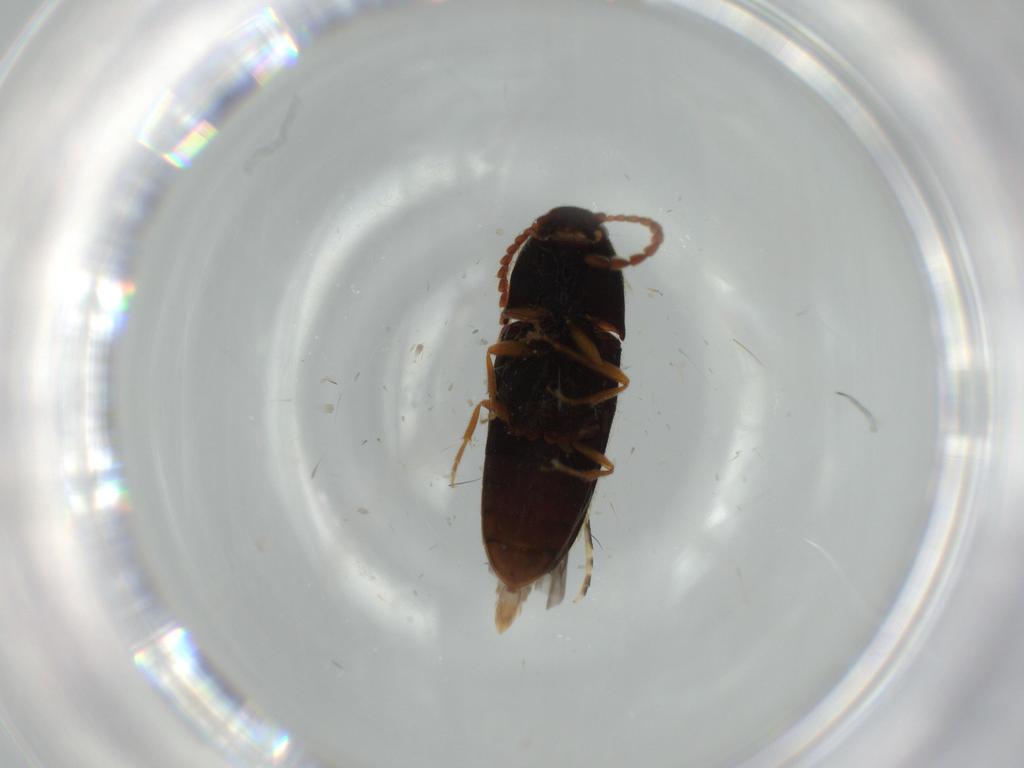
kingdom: Animalia
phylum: Arthropoda
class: Insecta
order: Coleoptera
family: Elateridae
